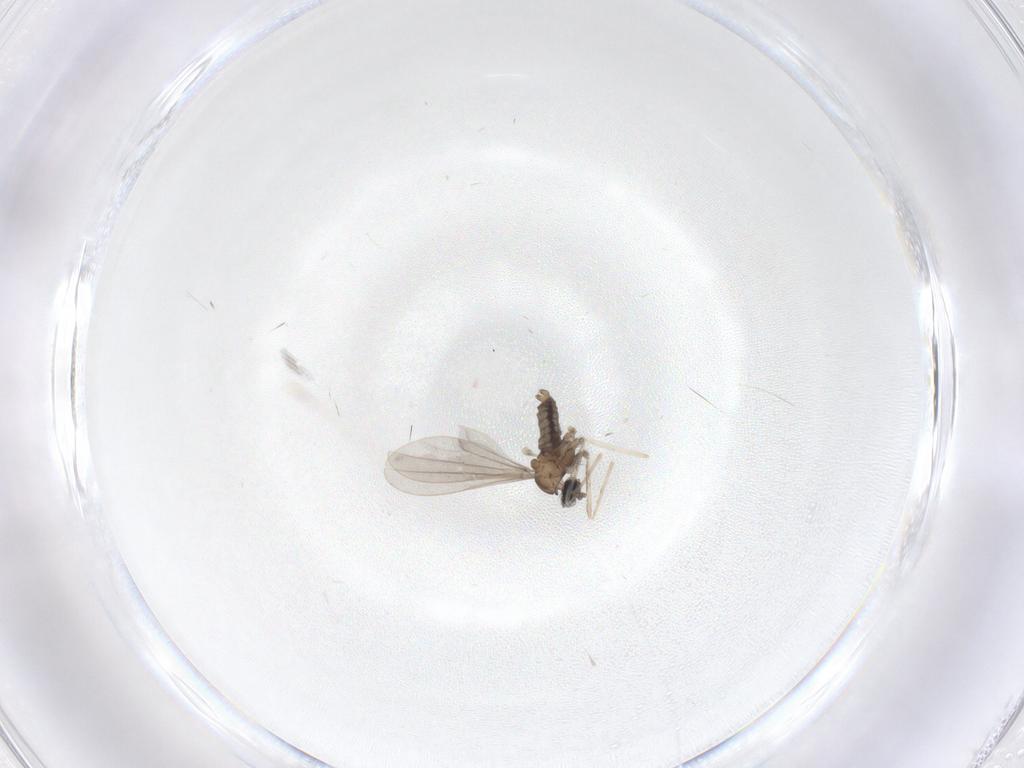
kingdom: Animalia
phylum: Arthropoda
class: Insecta
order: Diptera
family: Cecidomyiidae
